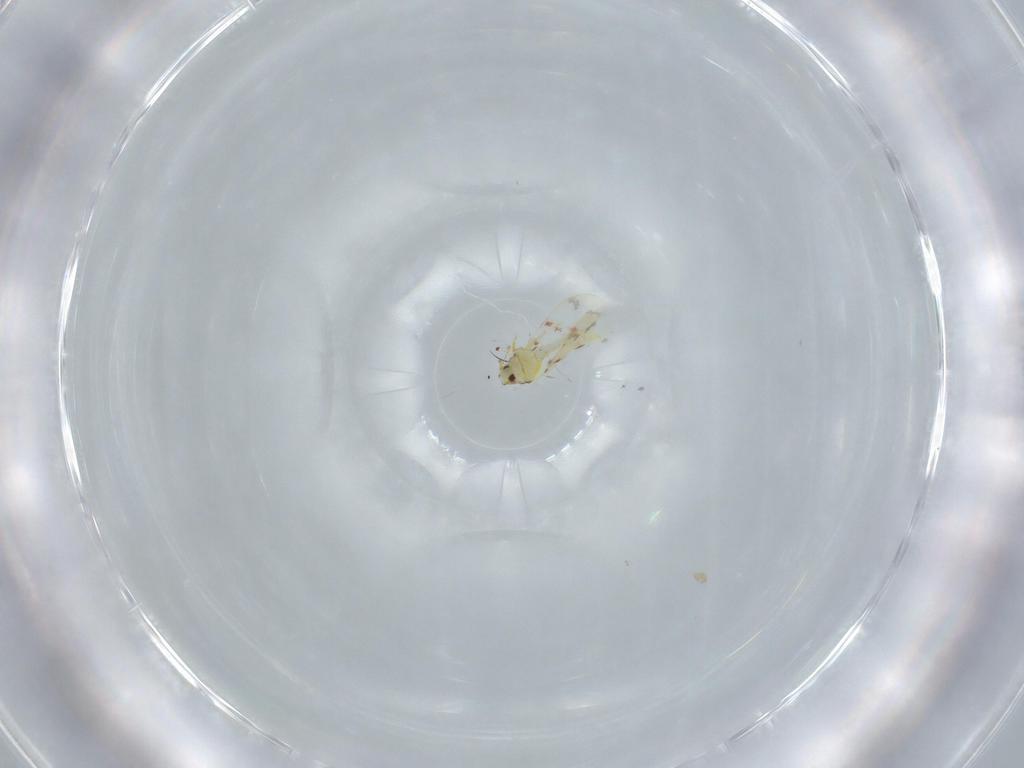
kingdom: Animalia
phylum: Arthropoda
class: Insecta
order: Hemiptera
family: Aleyrodidae
